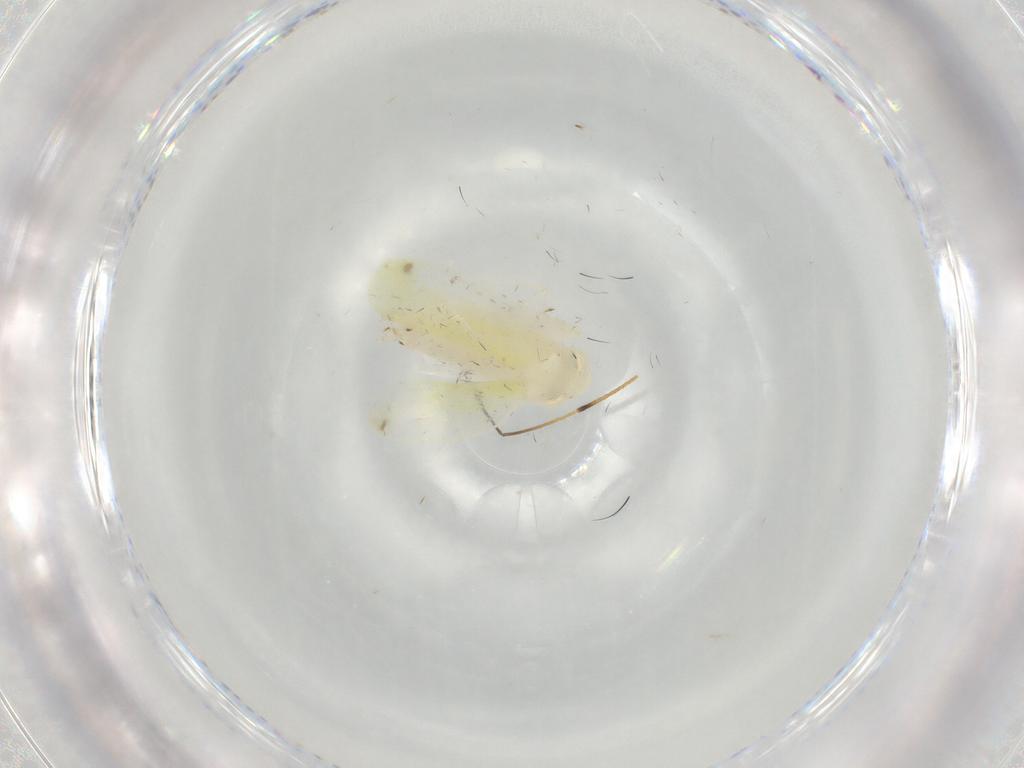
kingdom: Animalia
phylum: Arthropoda
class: Insecta
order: Hemiptera
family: Cicadellidae
